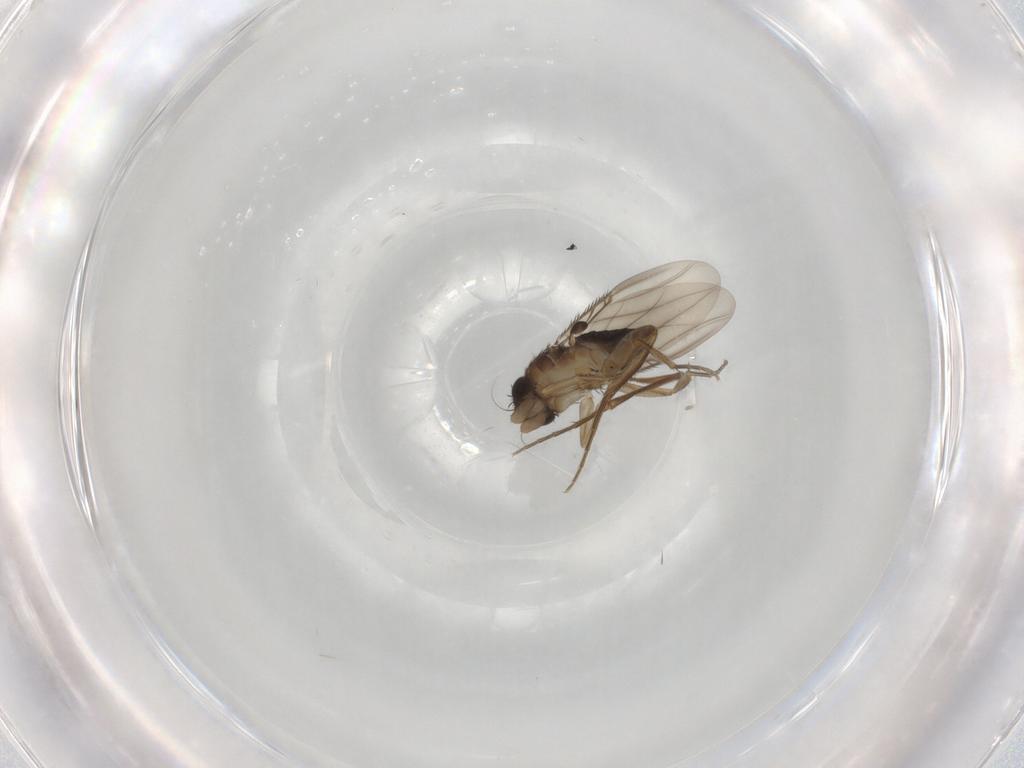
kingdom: Animalia
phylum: Arthropoda
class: Insecta
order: Diptera
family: Phoridae
